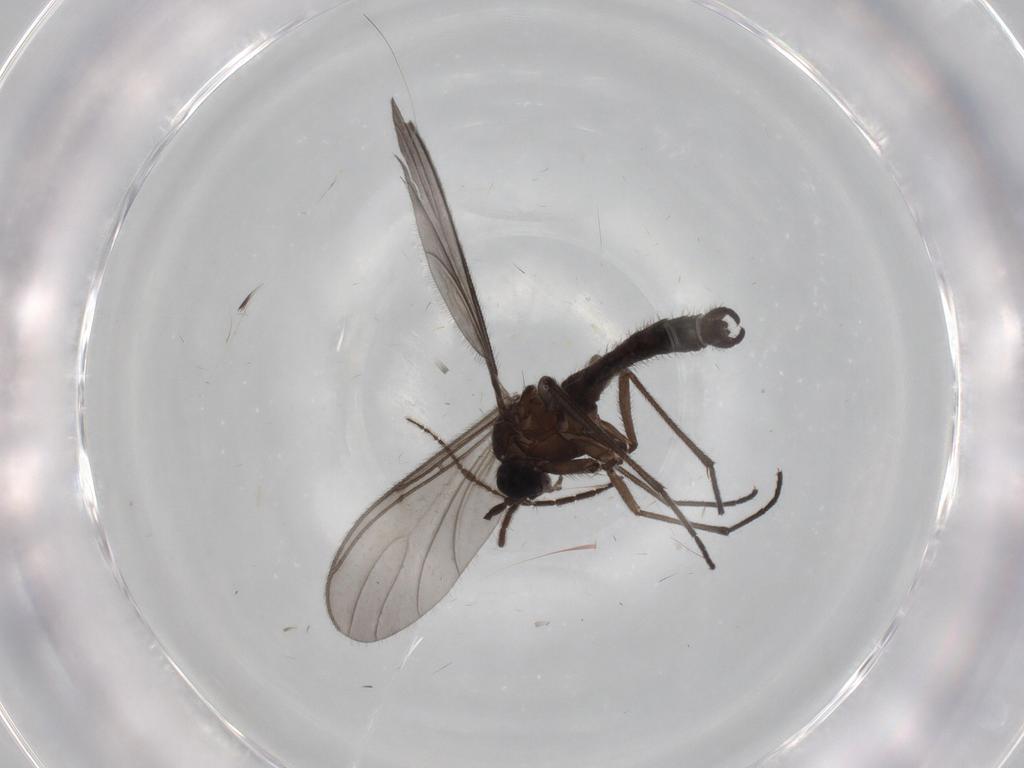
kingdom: Animalia
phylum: Arthropoda
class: Insecta
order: Diptera
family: Sciaridae
